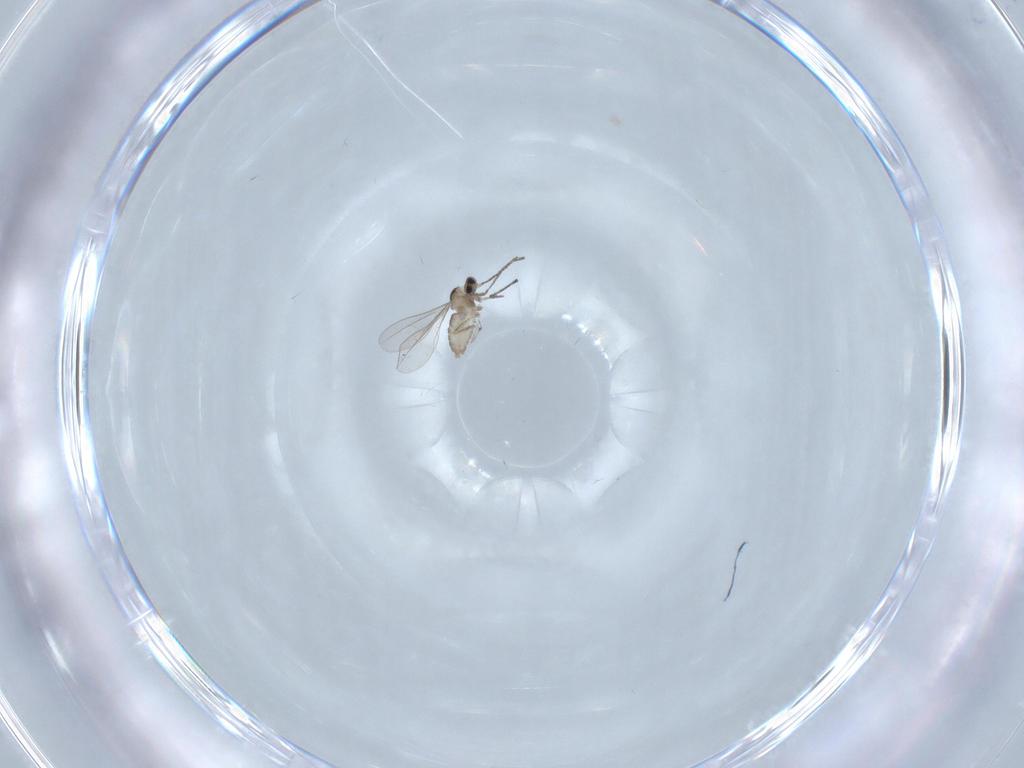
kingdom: Animalia
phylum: Arthropoda
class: Insecta
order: Diptera
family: Cecidomyiidae
